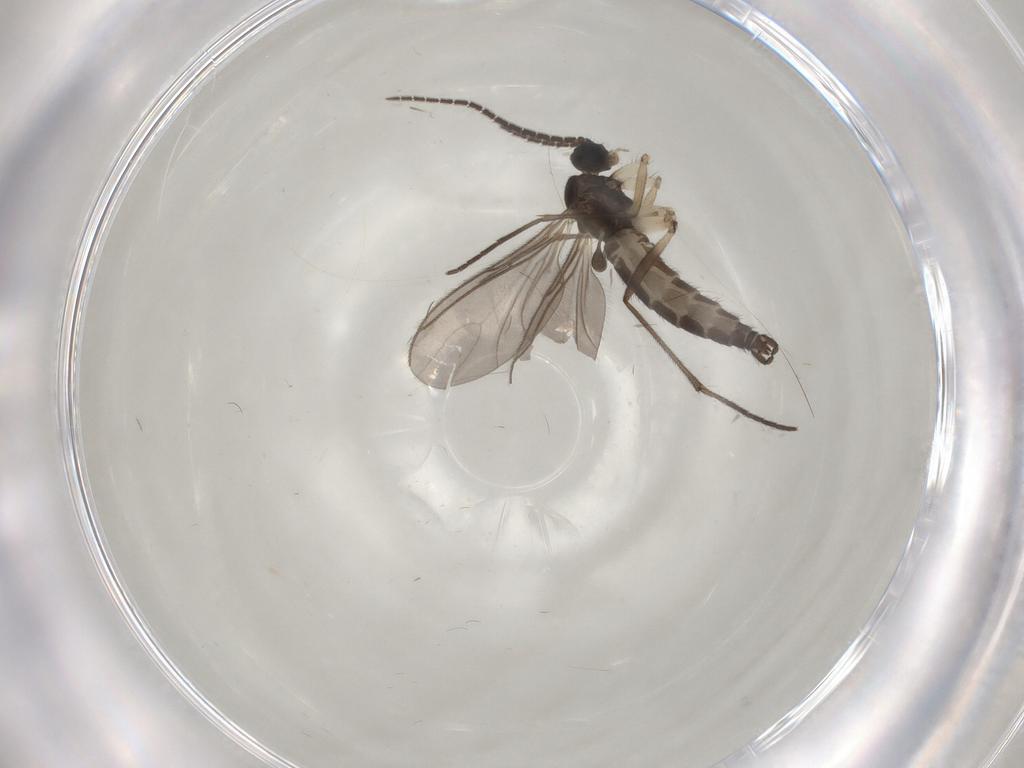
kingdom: Animalia
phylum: Arthropoda
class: Insecta
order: Diptera
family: Sciaridae
